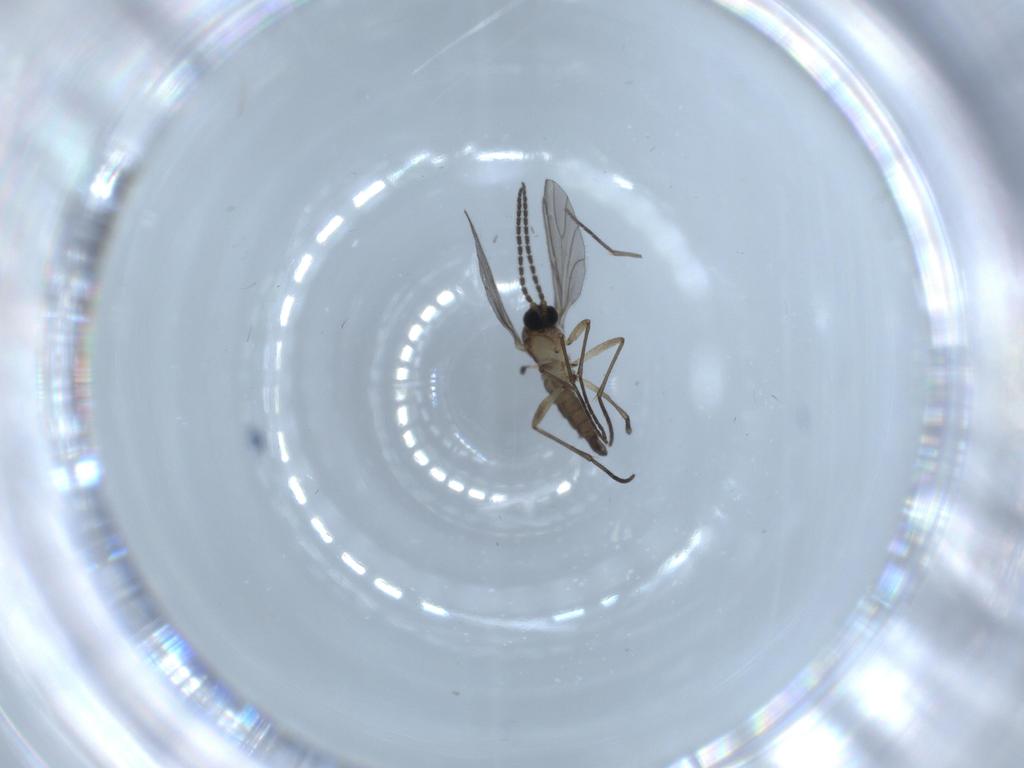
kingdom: Animalia
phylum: Arthropoda
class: Insecta
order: Diptera
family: Sciaridae
